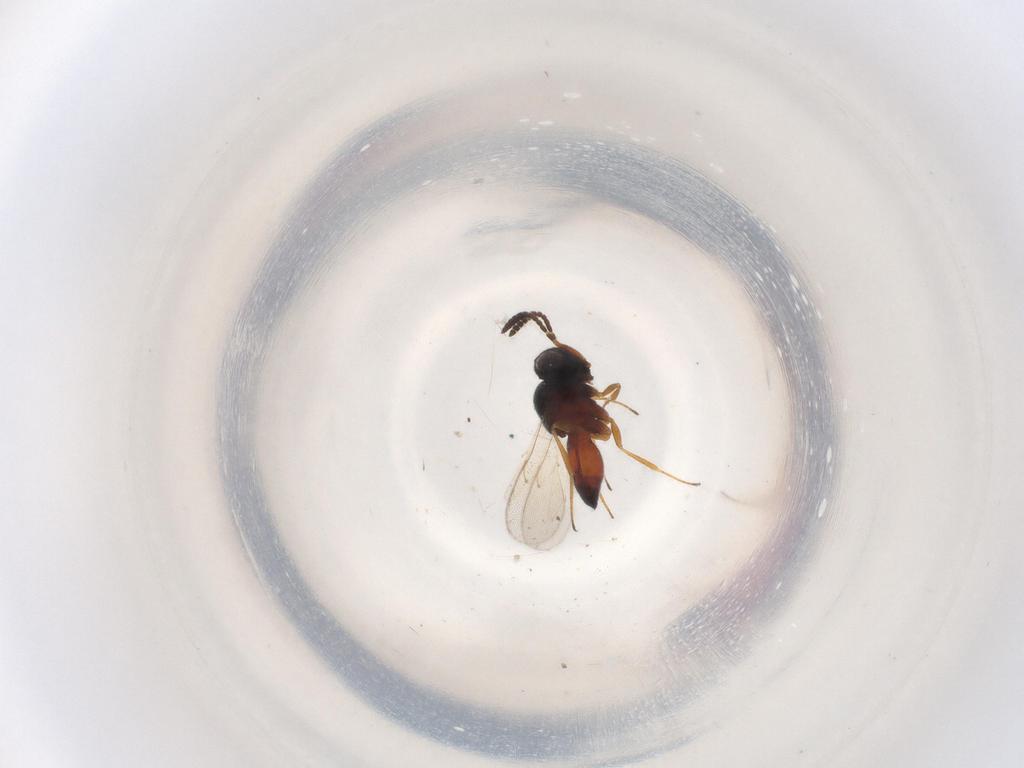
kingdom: Animalia
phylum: Arthropoda
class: Insecta
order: Hymenoptera
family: Scelionidae
